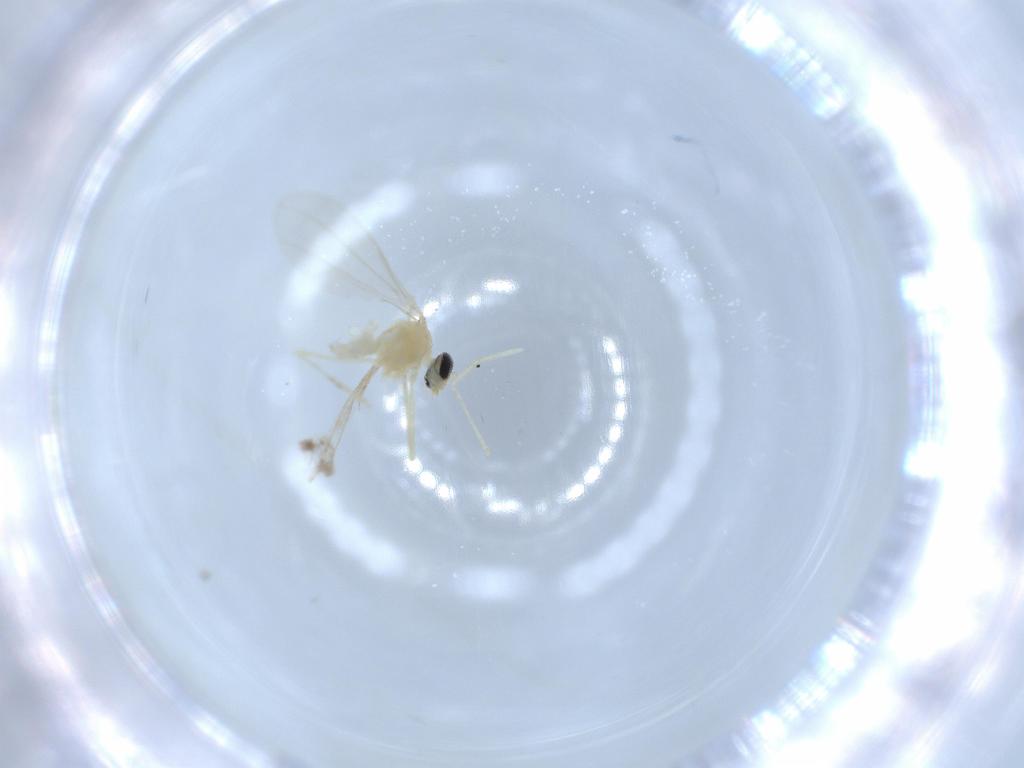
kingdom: Animalia
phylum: Arthropoda
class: Insecta
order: Diptera
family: Cecidomyiidae
